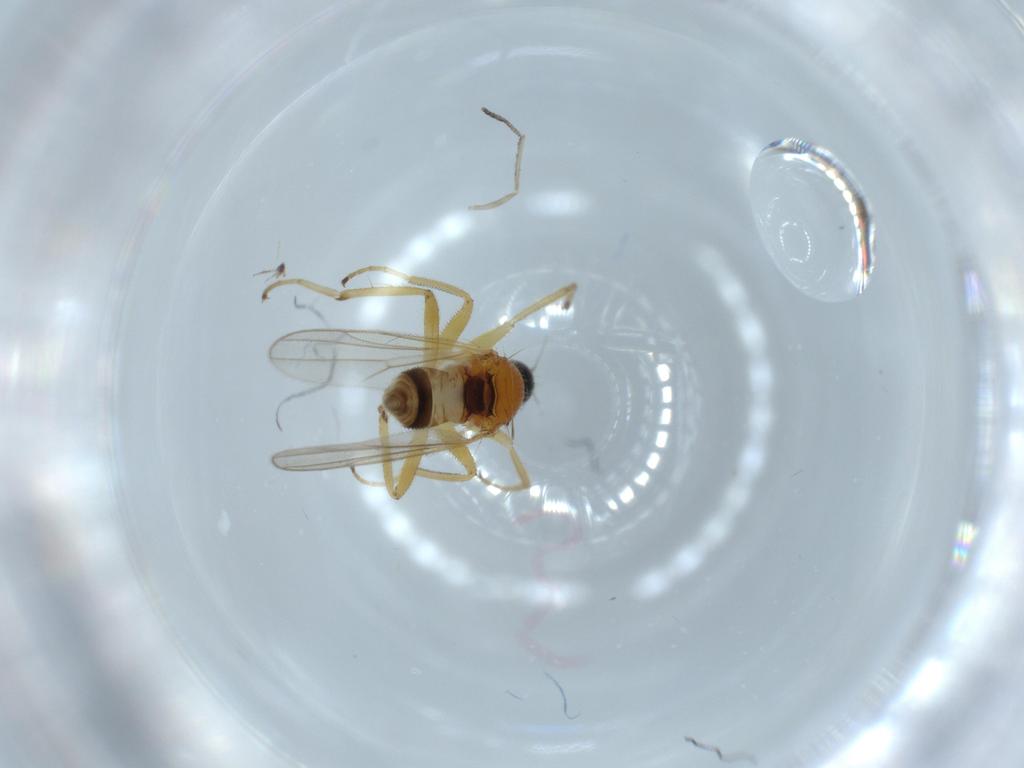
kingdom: Animalia
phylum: Arthropoda
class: Insecta
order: Diptera
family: Hybotidae
